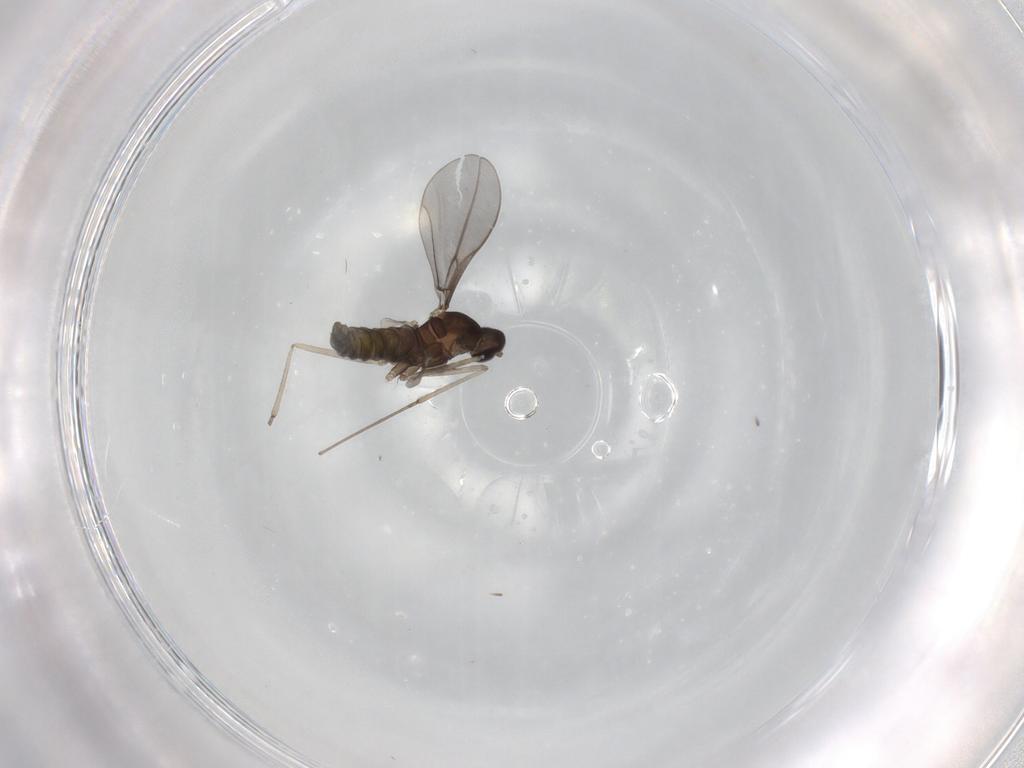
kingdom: Animalia
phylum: Arthropoda
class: Insecta
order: Diptera
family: Cecidomyiidae
